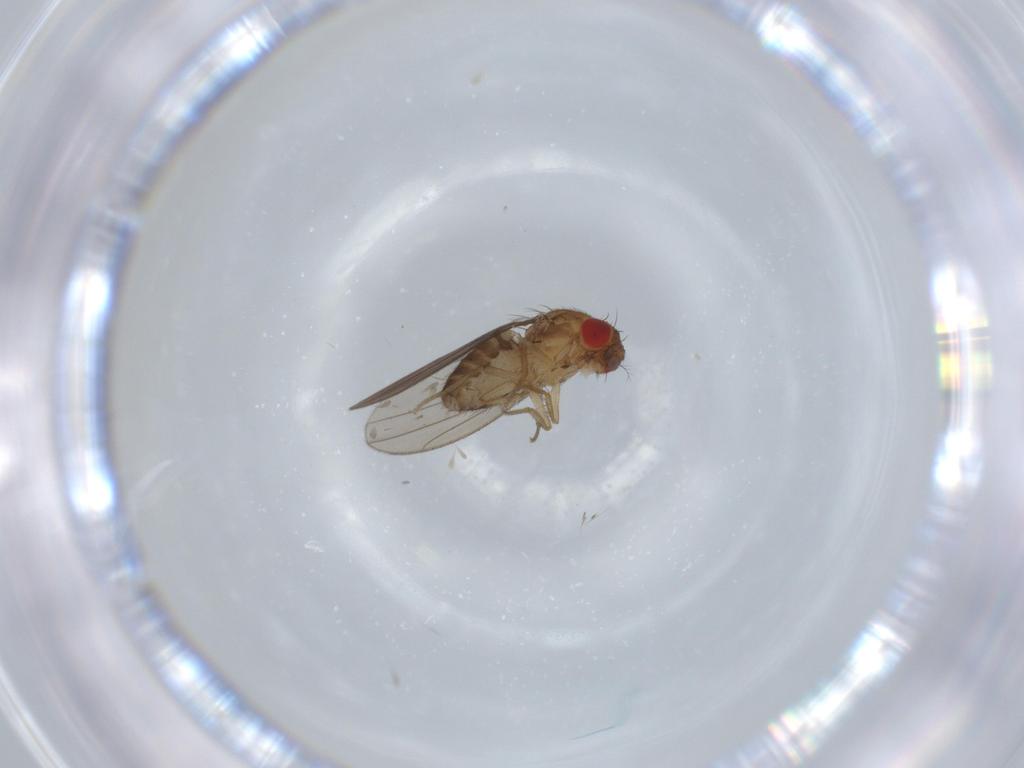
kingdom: Animalia
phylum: Arthropoda
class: Insecta
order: Diptera
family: Drosophilidae
